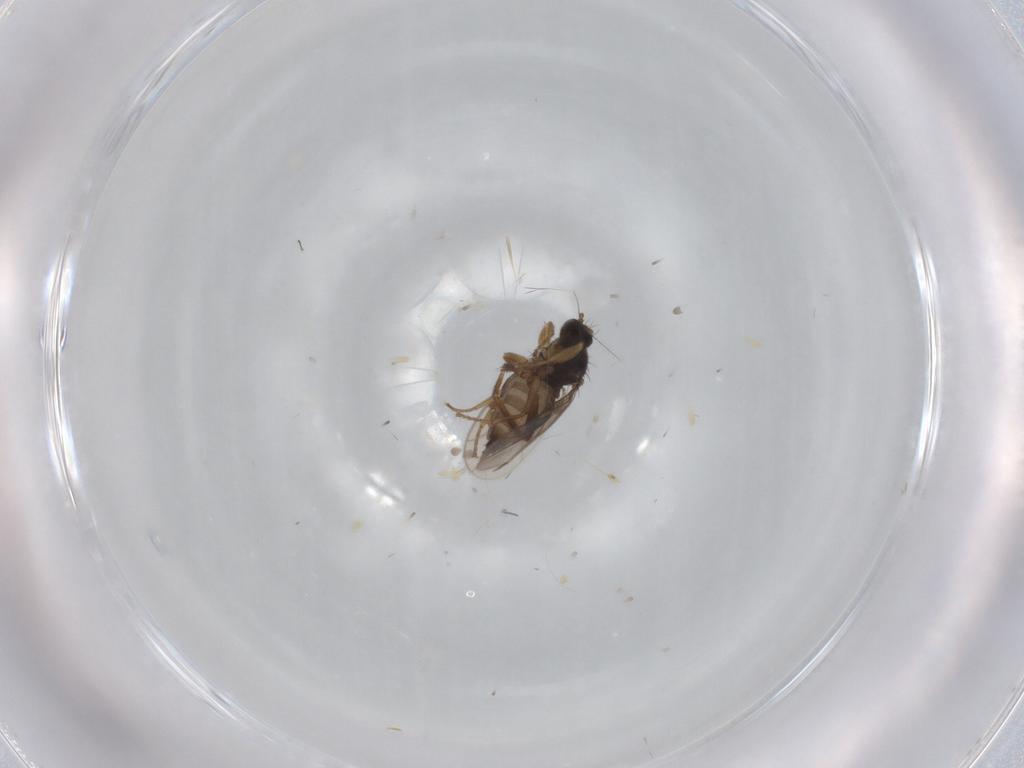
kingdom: Animalia
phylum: Arthropoda
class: Insecta
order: Diptera
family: Hybotidae
